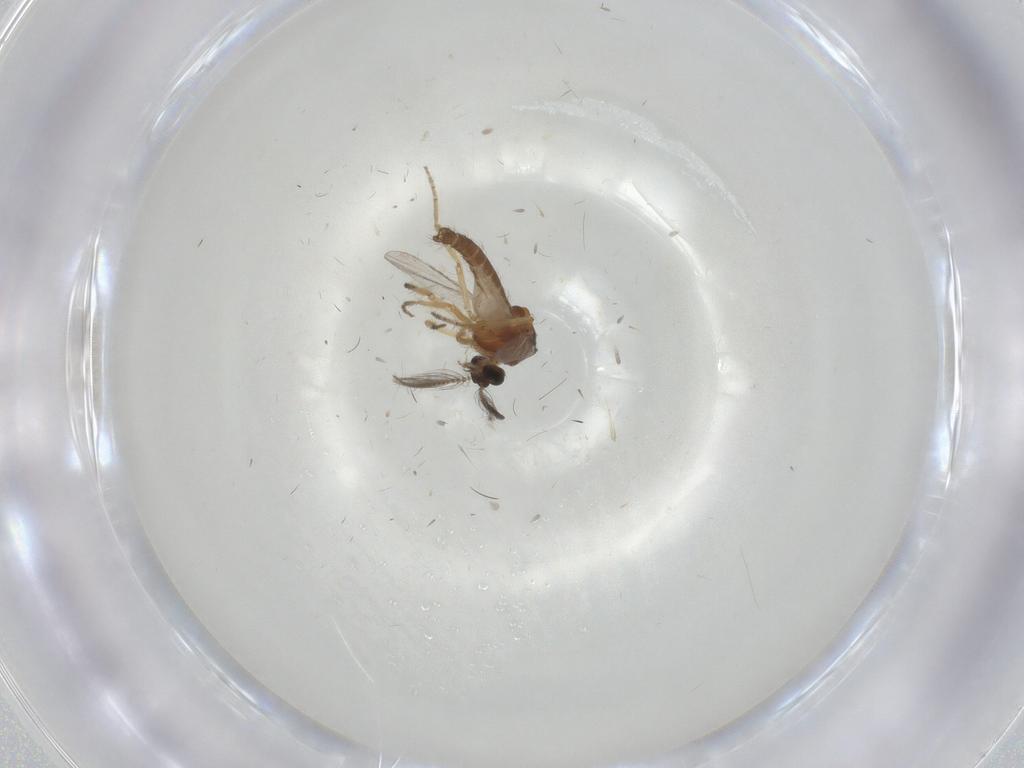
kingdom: Animalia
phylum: Arthropoda
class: Insecta
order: Diptera
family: Ceratopogonidae
